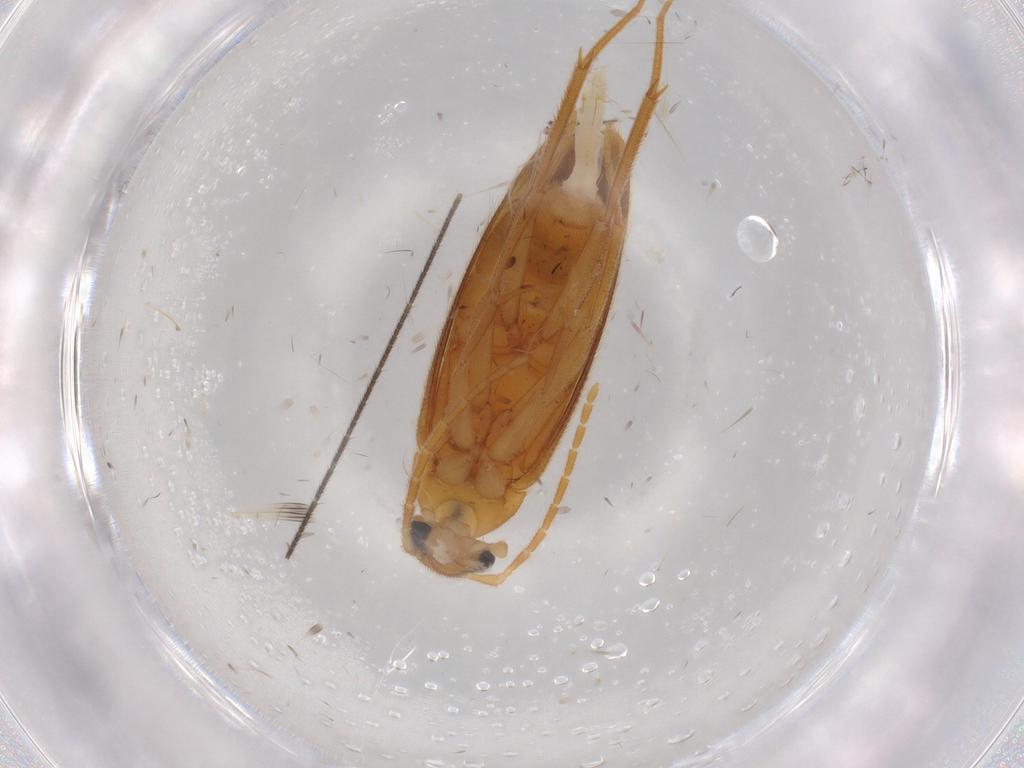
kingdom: Animalia
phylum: Arthropoda
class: Insecta
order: Coleoptera
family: Scraptiidae
